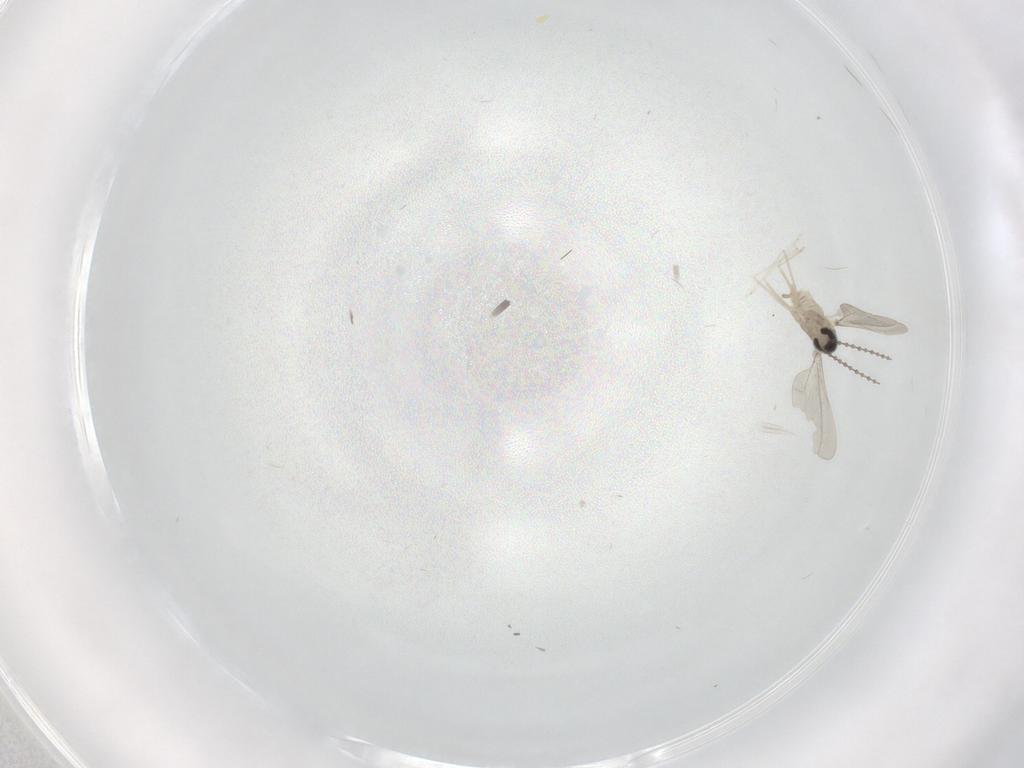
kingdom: Animalia
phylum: Arthropoda
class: Insecta
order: Diptera
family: Cecidomyiidae
